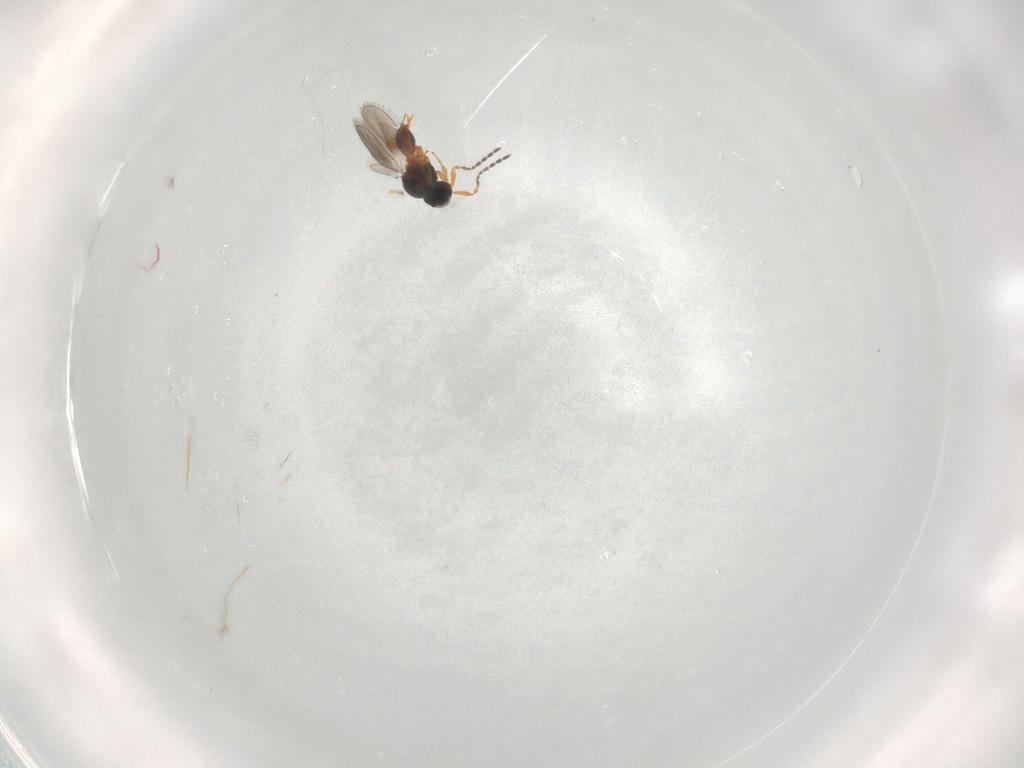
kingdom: Animalia
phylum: Arthropoda
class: Insecta
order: Hymenoptera
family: Platygastridae
